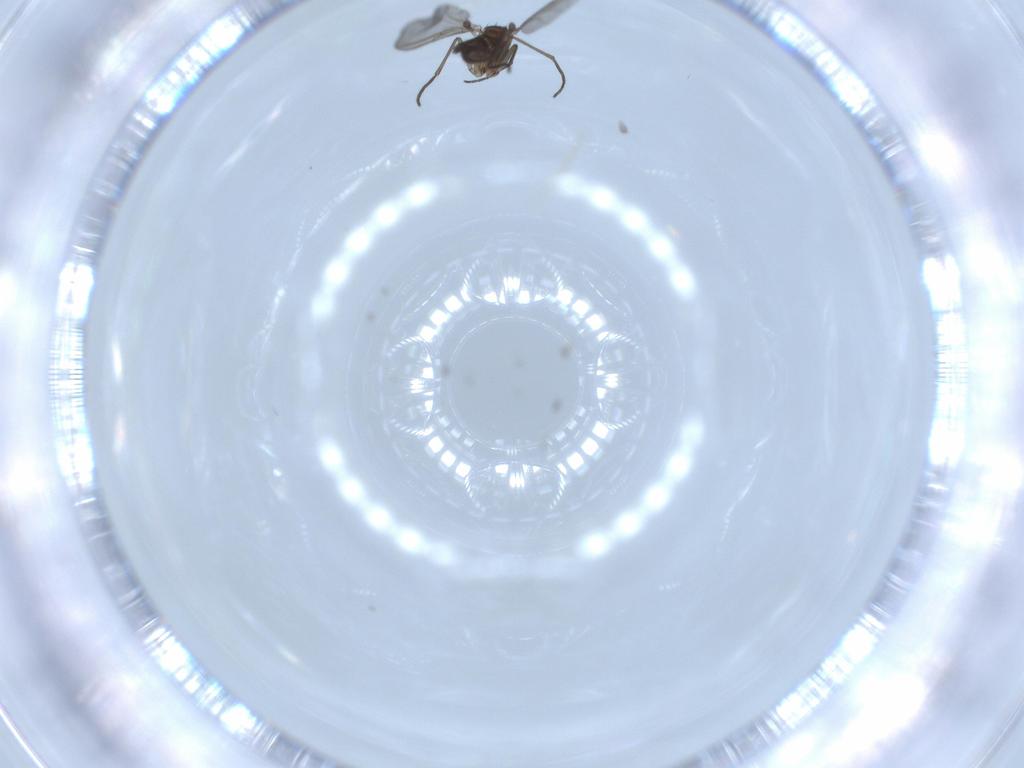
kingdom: Animalia
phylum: Arthropoda
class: Insecta
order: Diptera
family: Sciaridae
